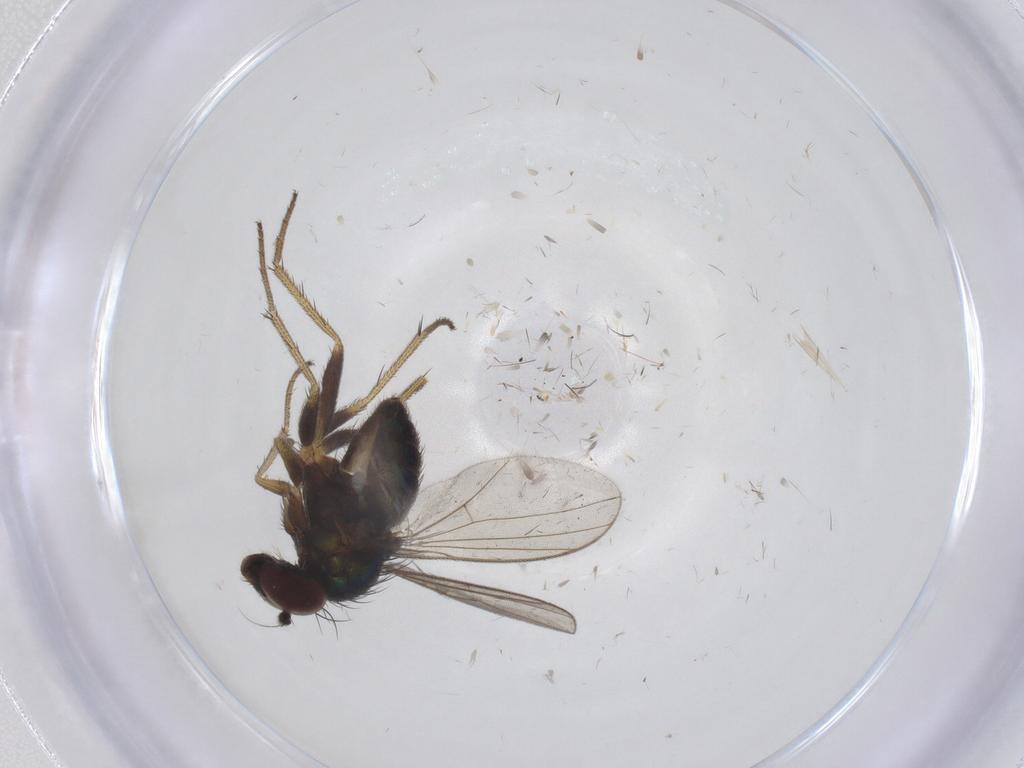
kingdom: Animalia
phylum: Arthropoda
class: Insecta
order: Diptera
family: Dolichopodidae
